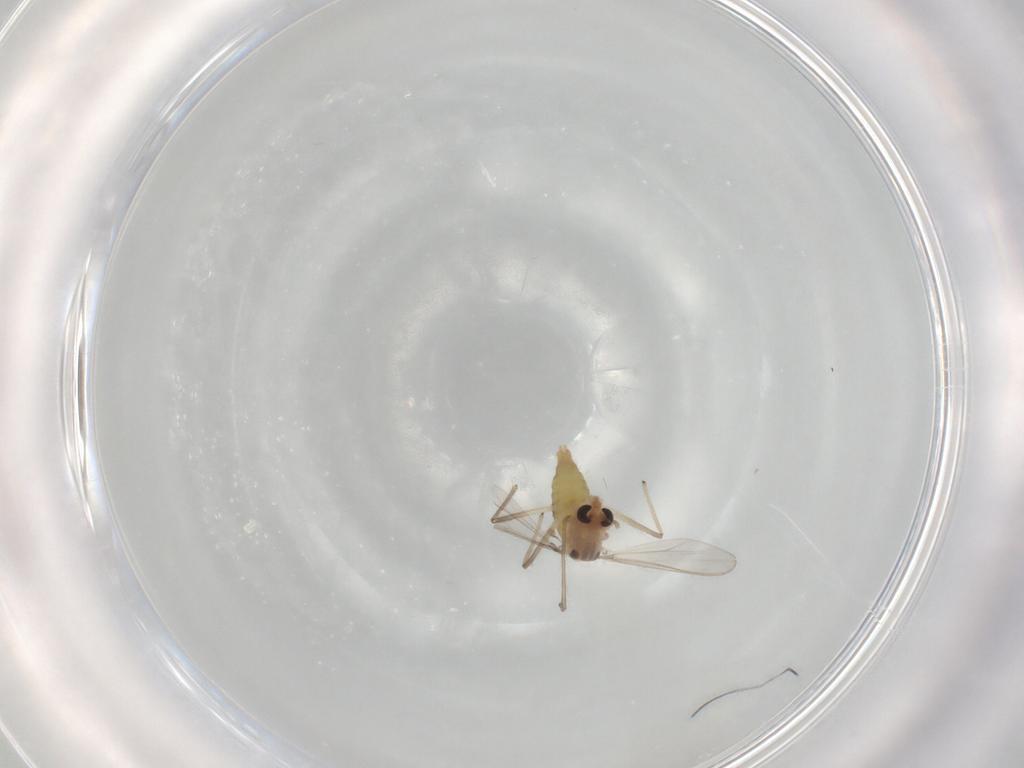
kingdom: Animalia
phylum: Arthropoda
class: Insecta
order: Diptera
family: Chironomidae
